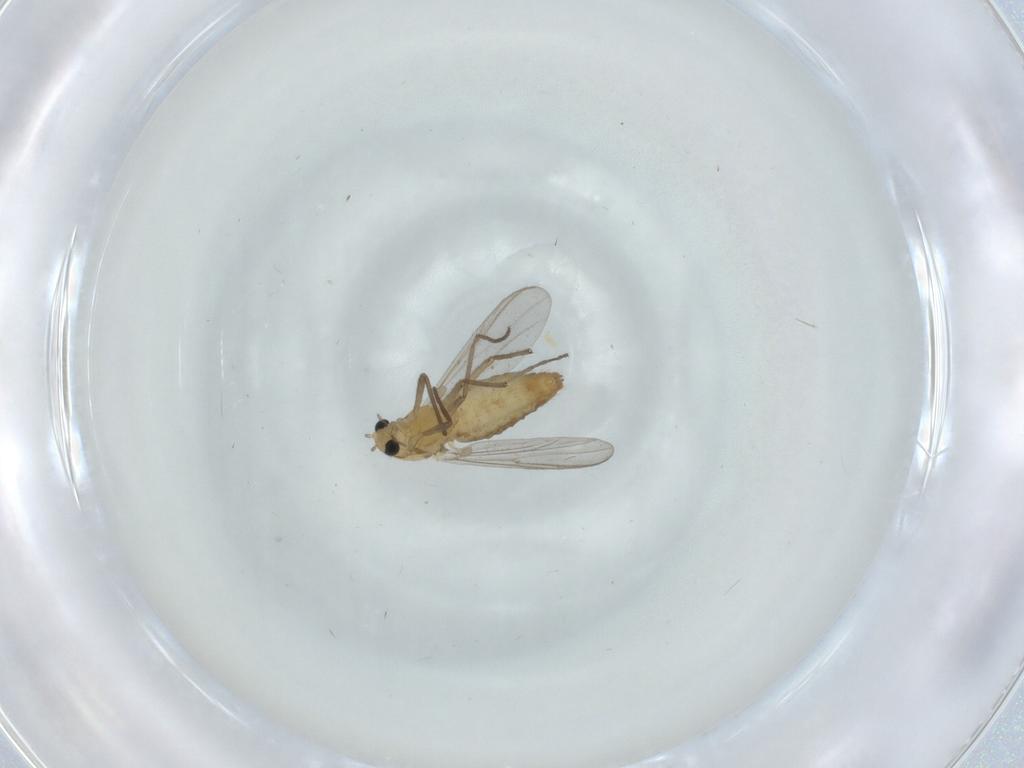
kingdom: Animalia
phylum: Arthropoda
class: Insecta
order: Diptera
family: Chironomidae
